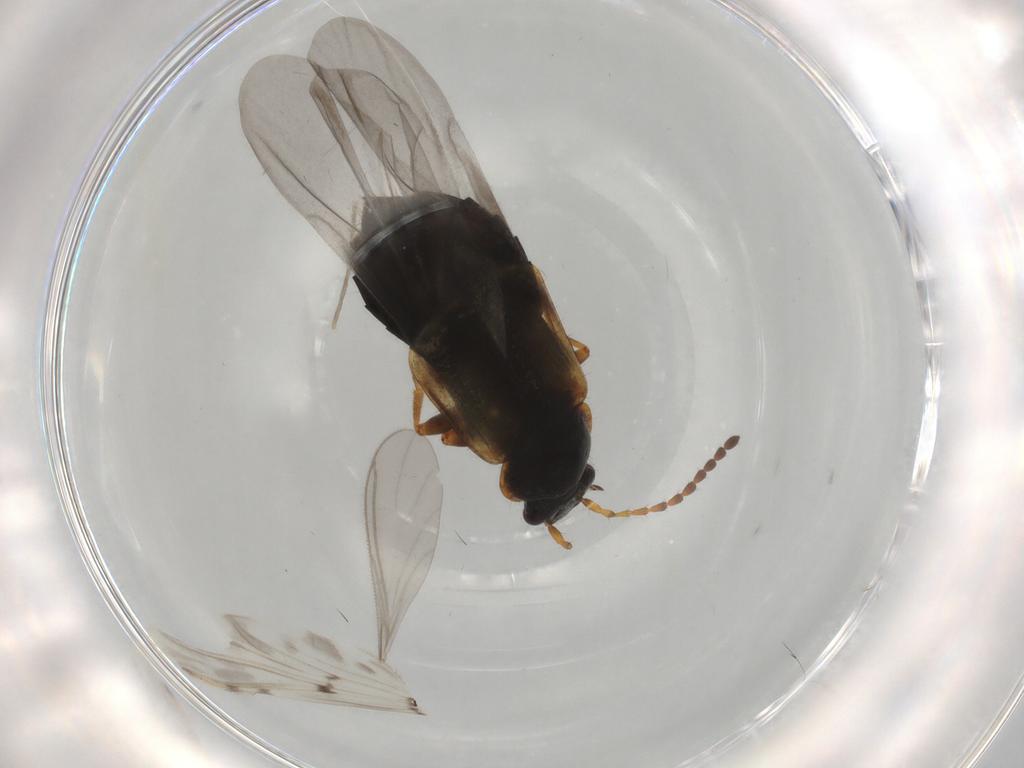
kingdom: Animalia
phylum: Arthropoda
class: Insecta
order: Coleoptera
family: Staphylinidae
